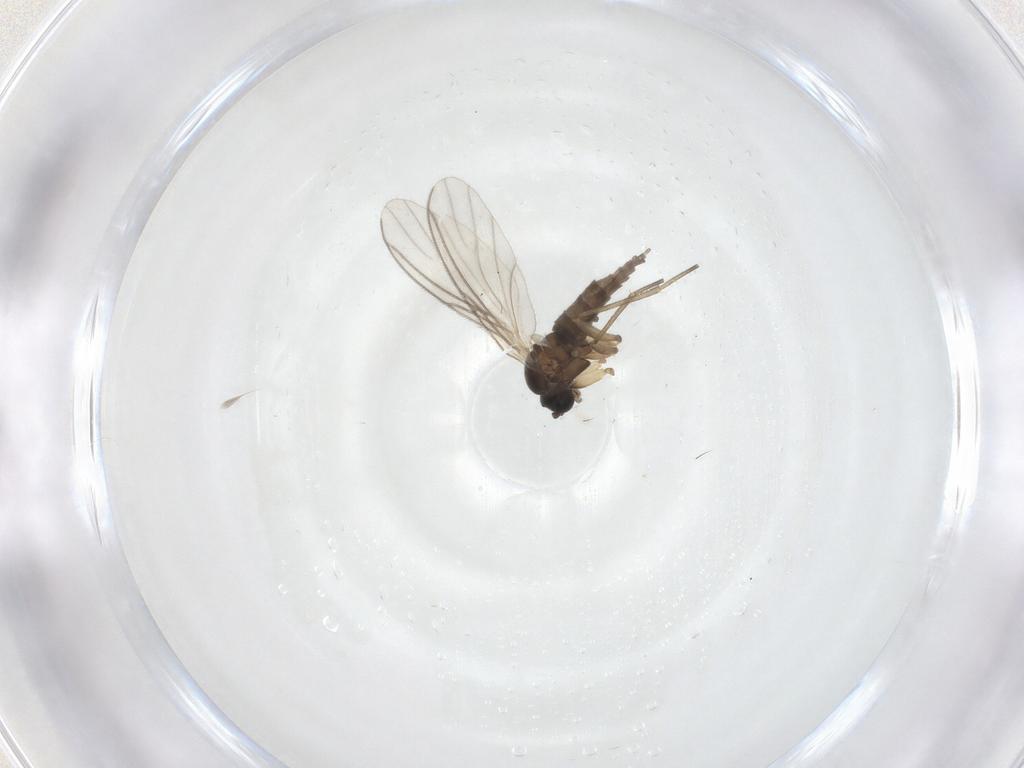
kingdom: Animalia
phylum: Arthropoda
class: Insecta
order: Diptera
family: Sciaridae
